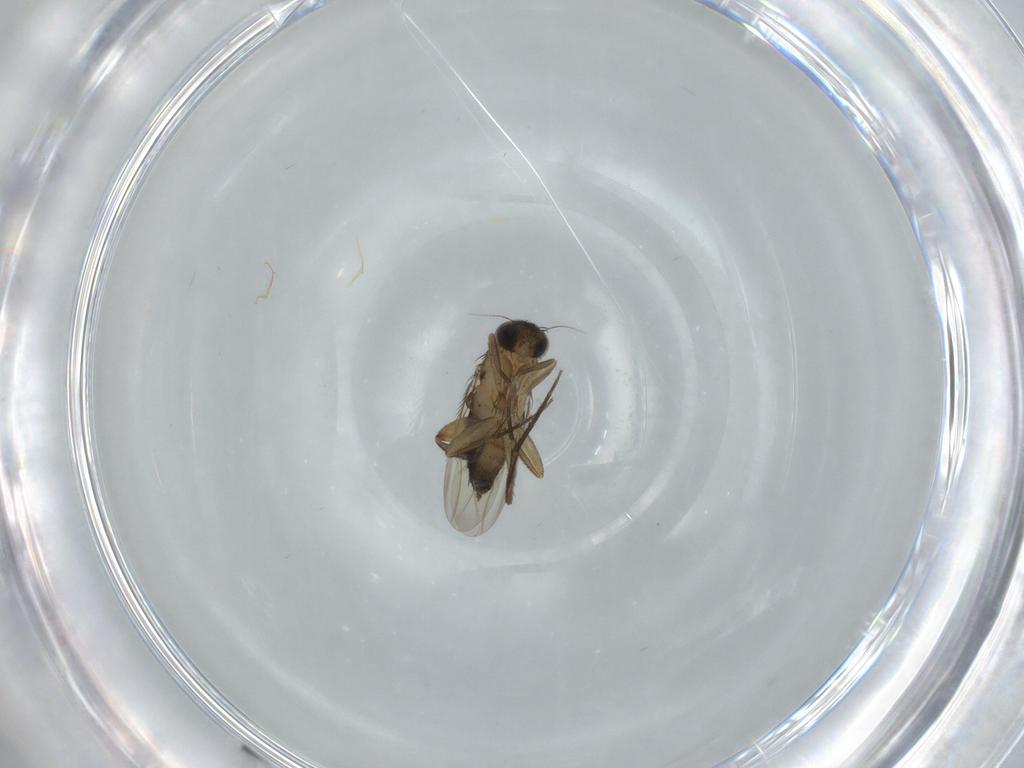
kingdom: Animalia
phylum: Arthropoda
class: Insecta
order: Diptera
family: Phoridae
